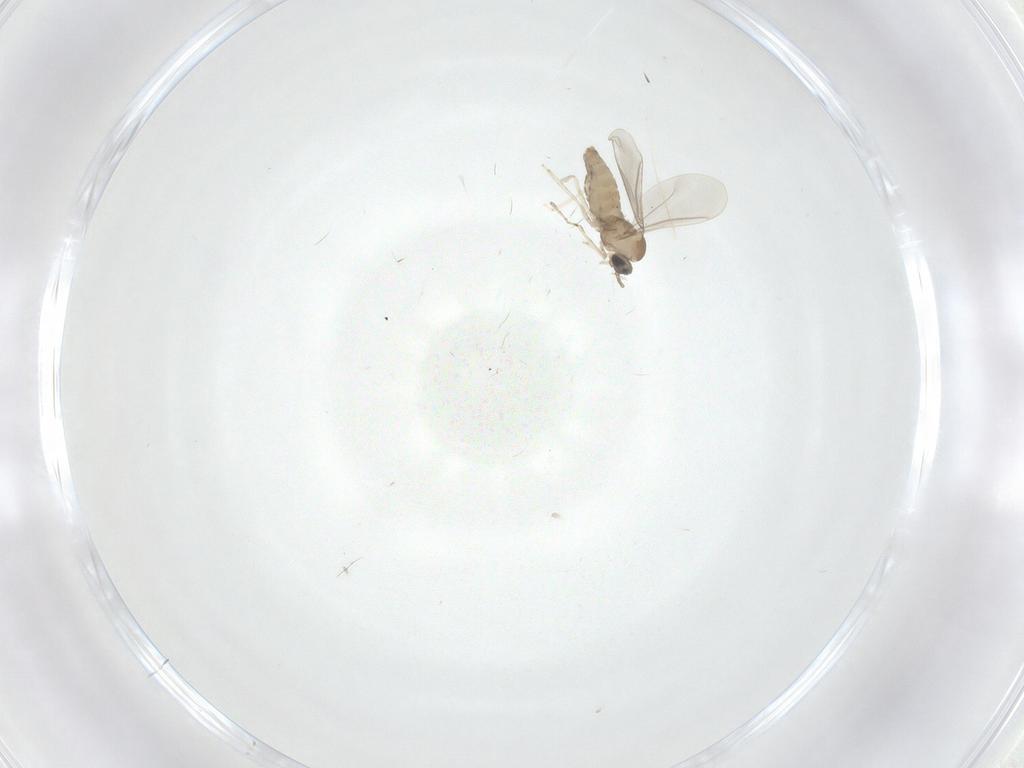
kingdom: Animalia
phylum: Arthropoda
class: Insecta
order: Diptera
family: Cecidomyiidae
